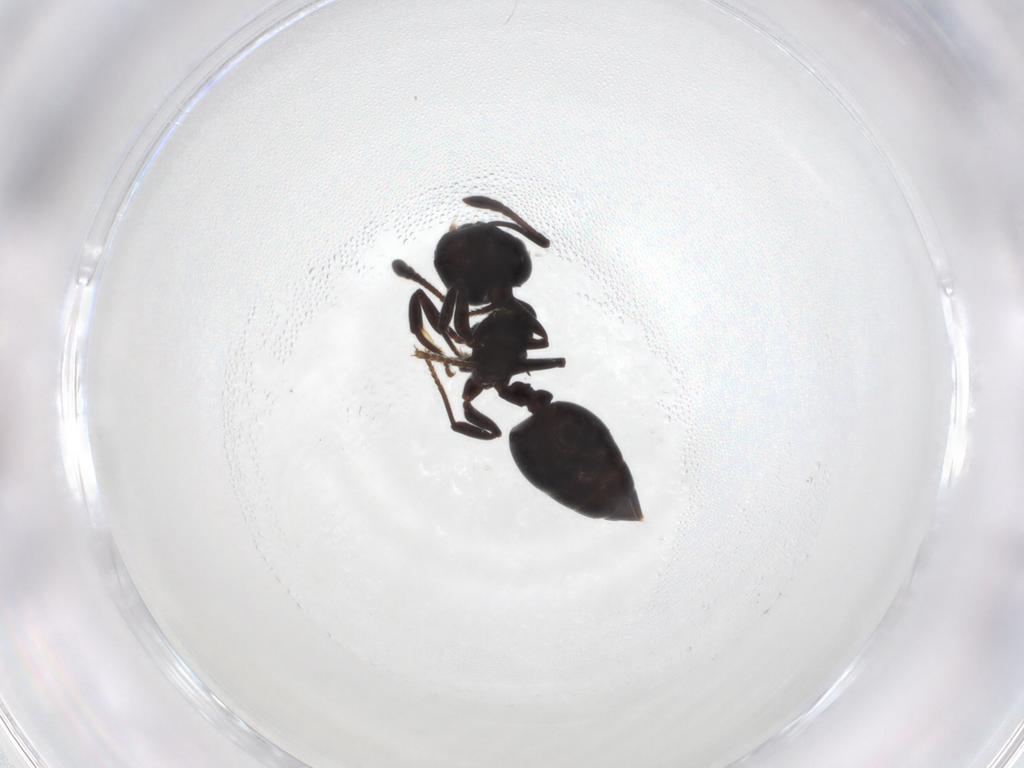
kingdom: Animalia
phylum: Arthropoda
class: Insecta
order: Hymenoptera
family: Formicidae
